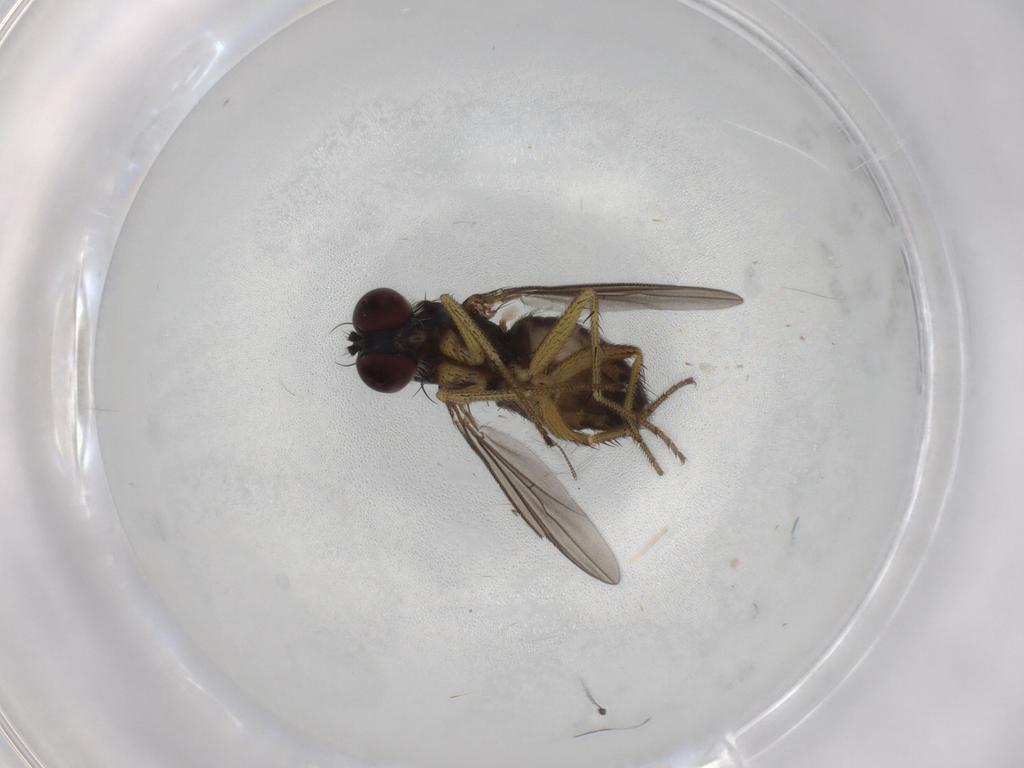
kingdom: Animalia
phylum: Arthropoda
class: Insecta
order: Diptera
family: Dolichopodidae
